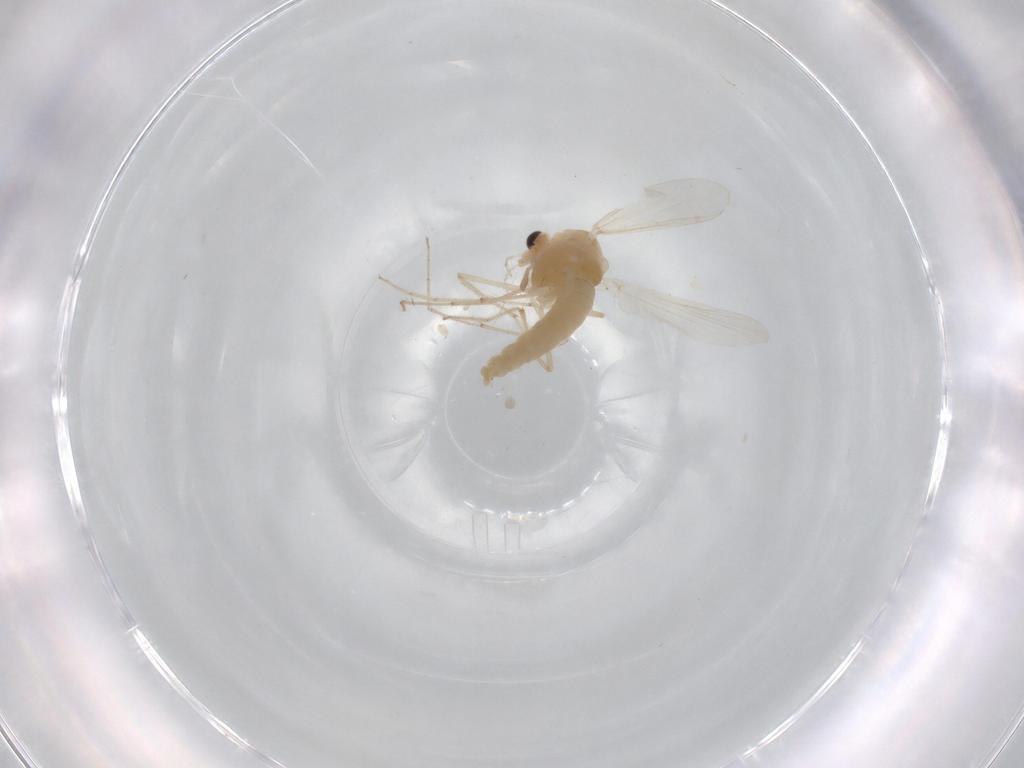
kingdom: Animalia
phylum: Arthropoda
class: Insecta
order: Diptera
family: Chironomidae
